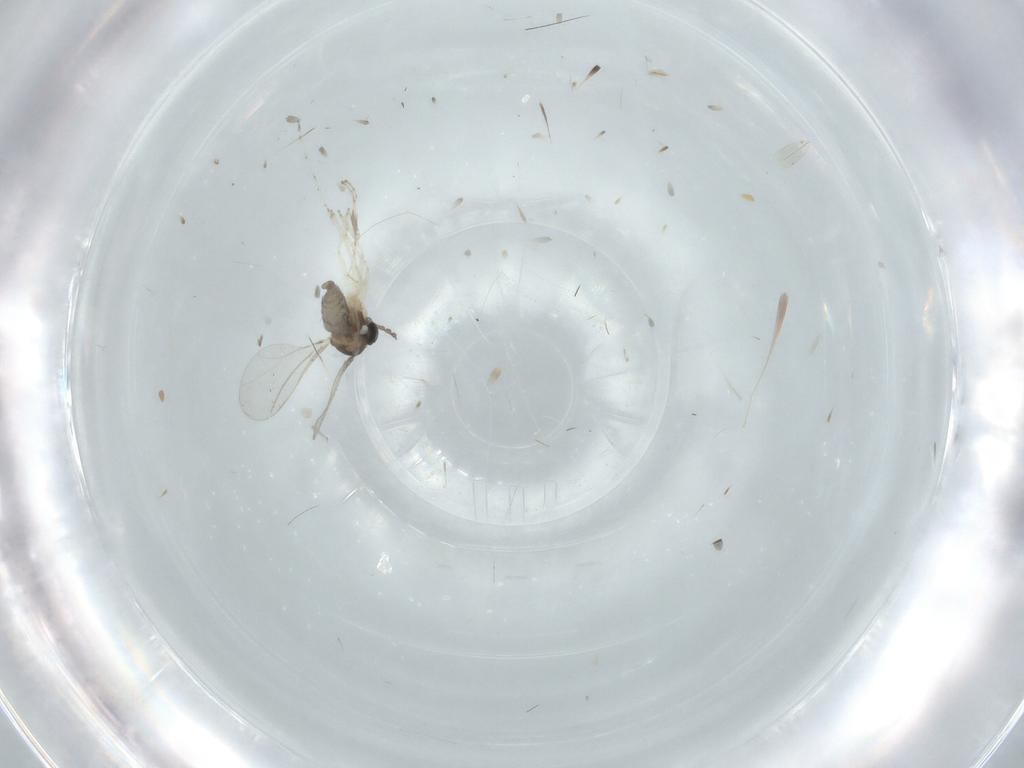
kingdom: Animalia
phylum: Arthropoda
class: Insecta
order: Diptera
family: Cecidomyiidae
